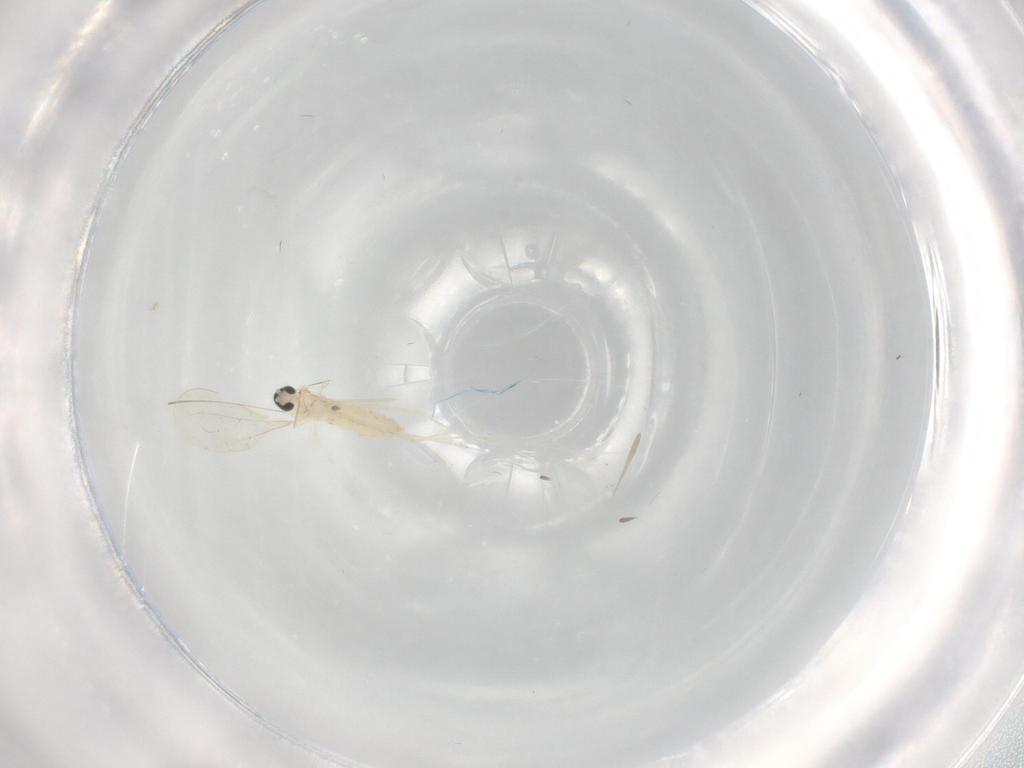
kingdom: Animalia
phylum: Arthropoda
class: Insecta
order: Diptera
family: Cecidomyiidae
